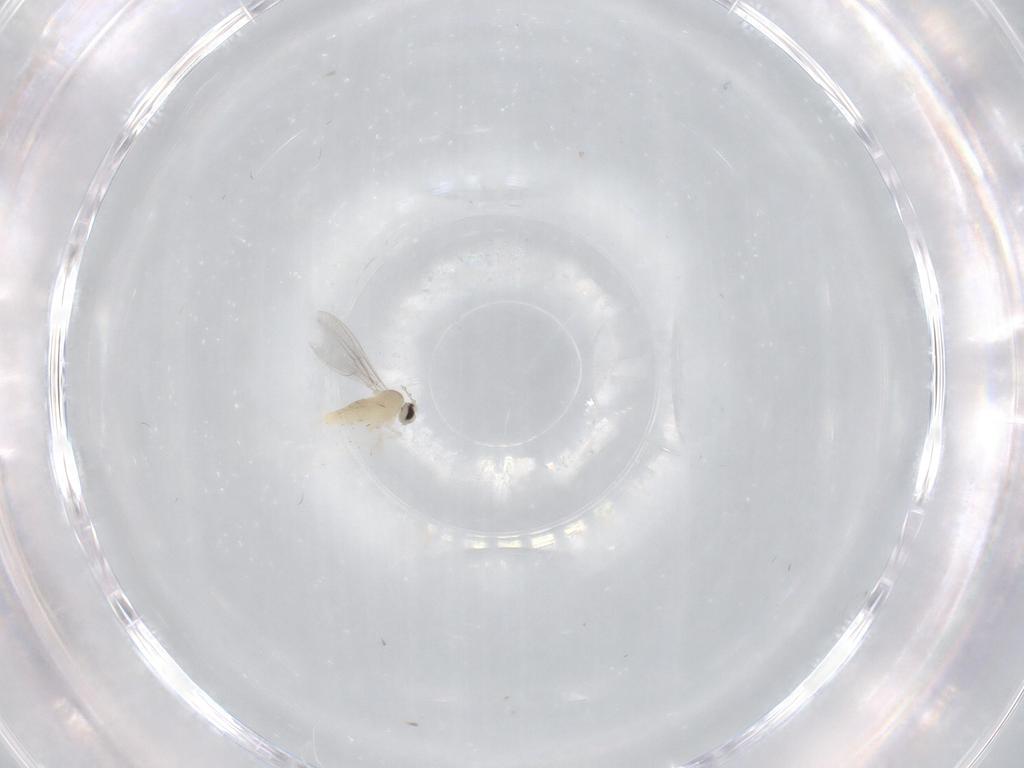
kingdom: Animalia
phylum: Arthropoda
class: Insecta
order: Diptera
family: Cecidomyiidae
